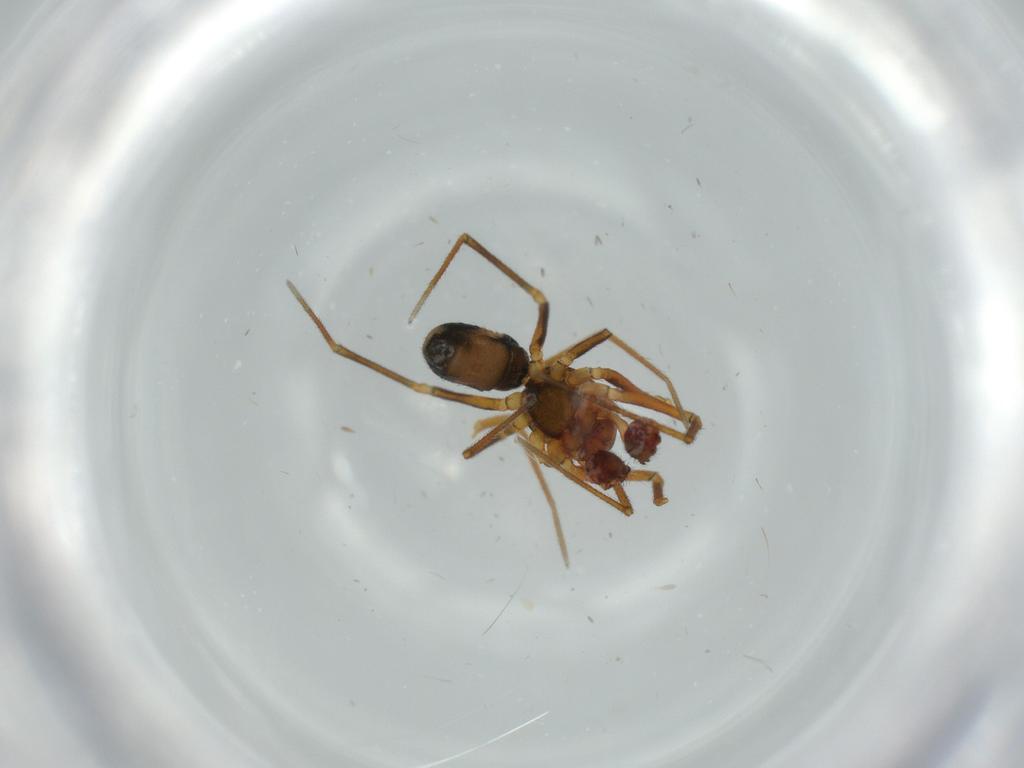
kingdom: Animalia
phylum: Arthropoda
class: Arachnida
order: Araneae
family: Linyphiidae
